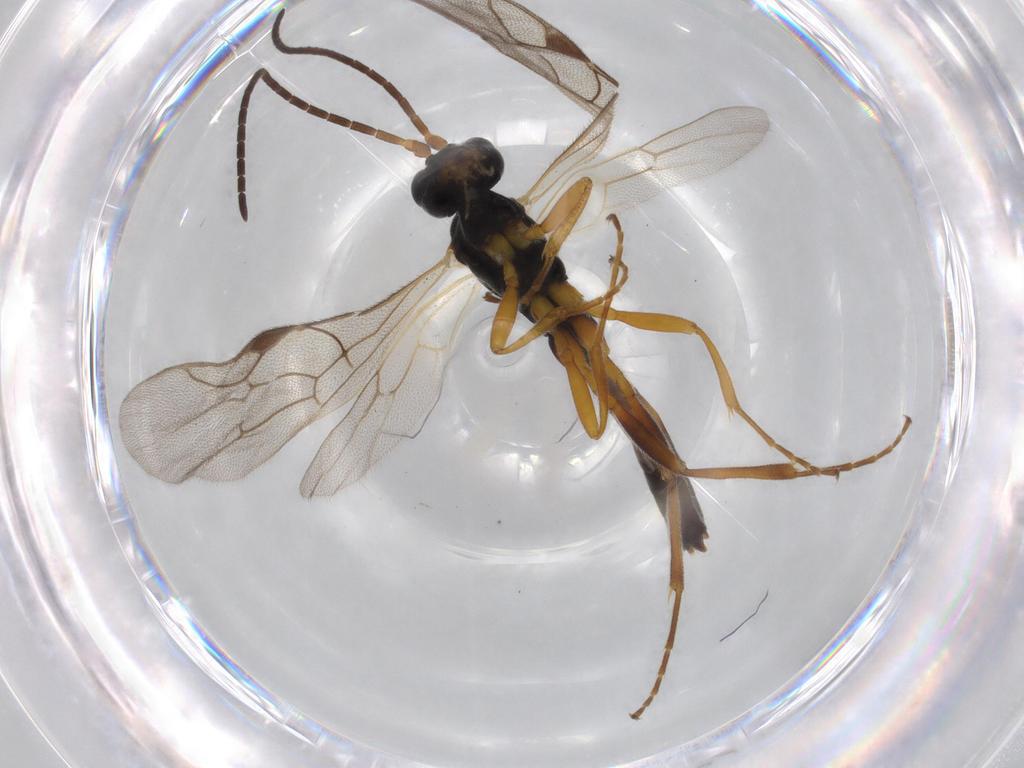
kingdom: Animalia
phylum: Arthropoda
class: Insecta
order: Hymenoptera
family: Ichneumonidae
